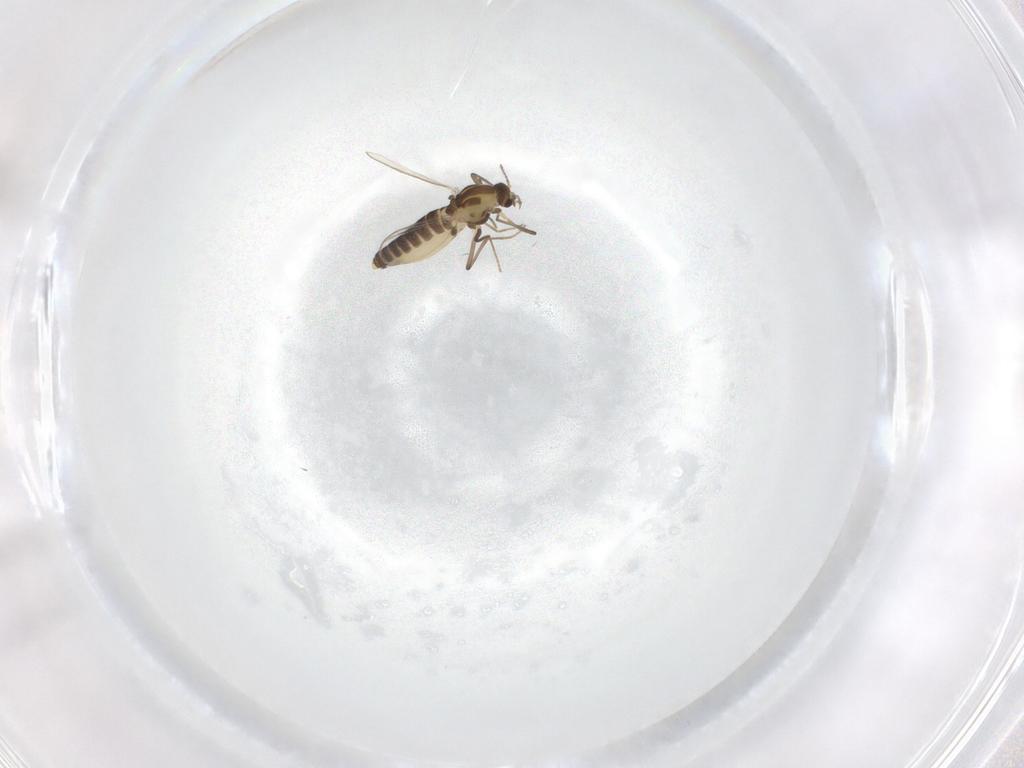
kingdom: Animalia
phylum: Arthropoda
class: Insecta
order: Diptera
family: Chironomidae
